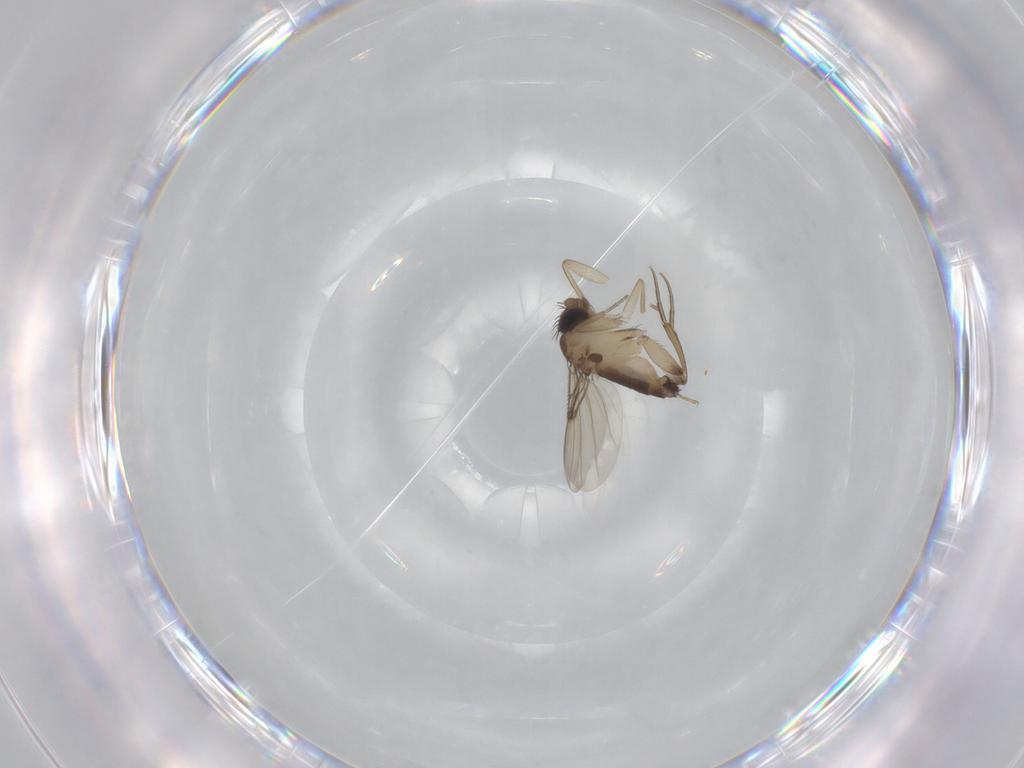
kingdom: Animalia
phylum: Arthropoda
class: Insecta
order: Diptera
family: Phoridae
